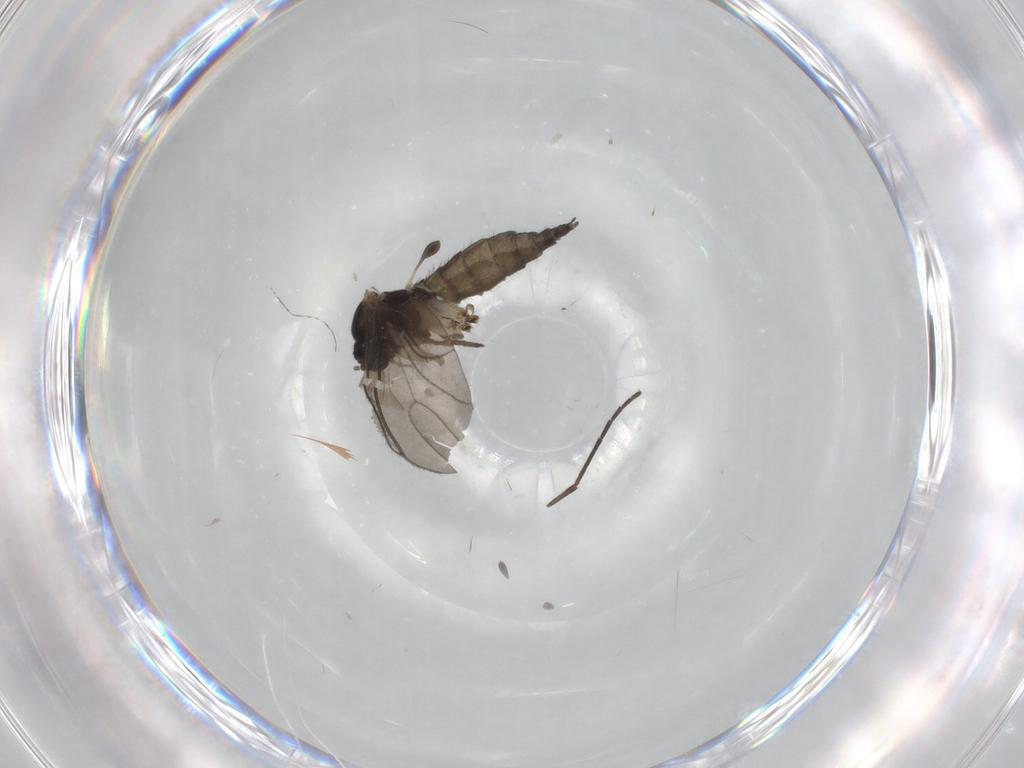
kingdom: Animalia
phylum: Arthropoda
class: Insecta
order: Diptera
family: Sciaridae
